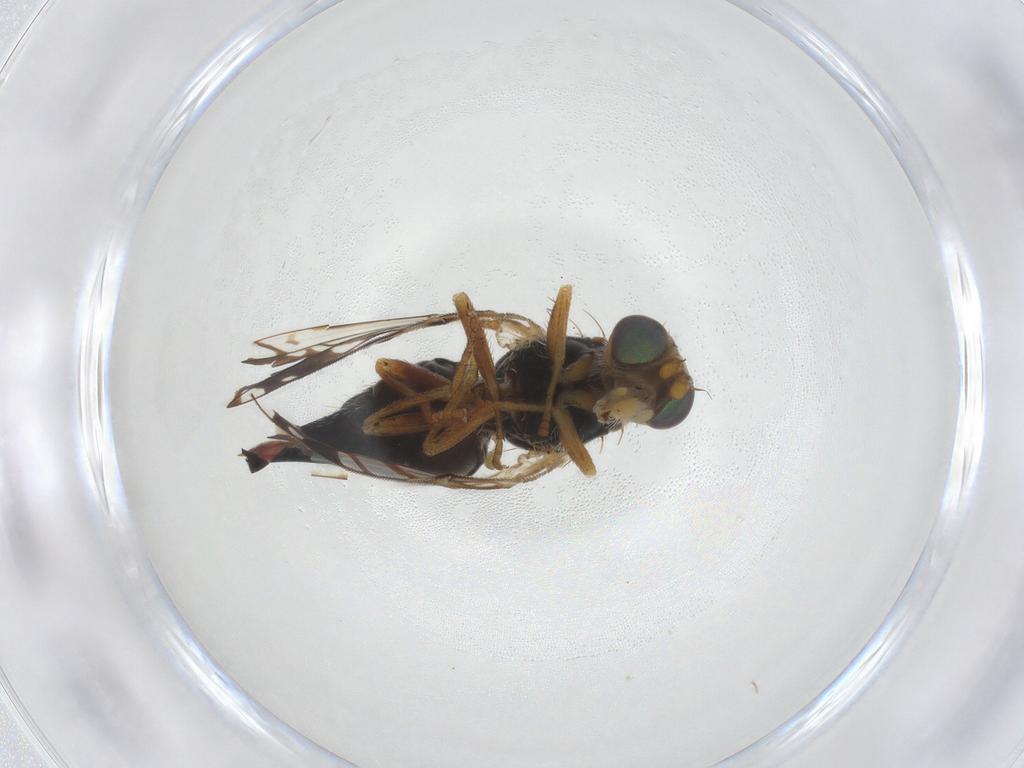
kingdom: Animalia
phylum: Arthropoda
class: Insecta
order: Diptera
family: Tephritidae
